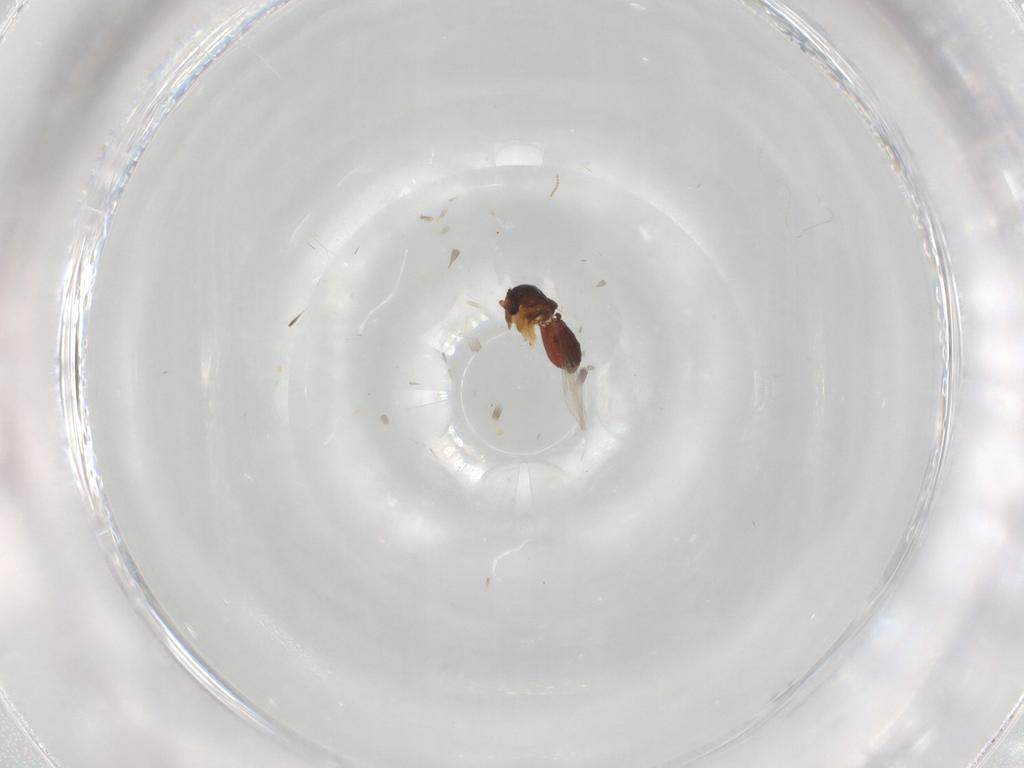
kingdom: Animalia
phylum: Arthropoda
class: Insecta
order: Diptera
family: Ceratopogonidae
